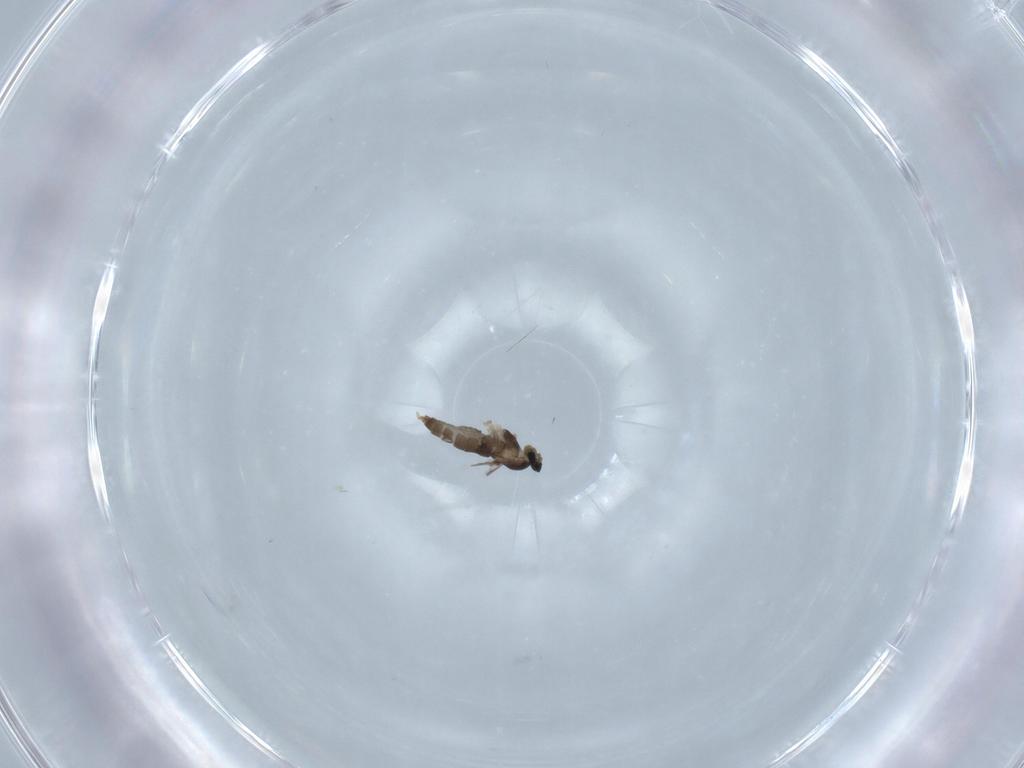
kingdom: Animalia
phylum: Arthropoda
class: Insecta
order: Diptera
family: Cecidomyiidae
